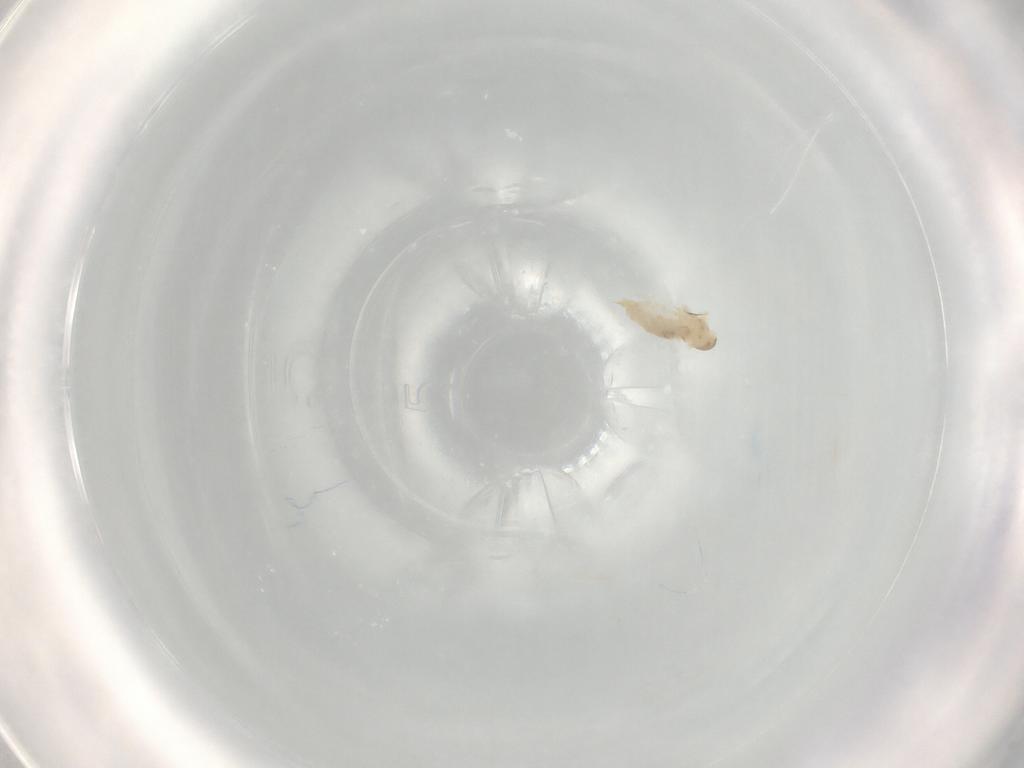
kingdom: Animalia
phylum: Arthropoda
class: Insecta
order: Diptera
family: Cecidomyiidae
